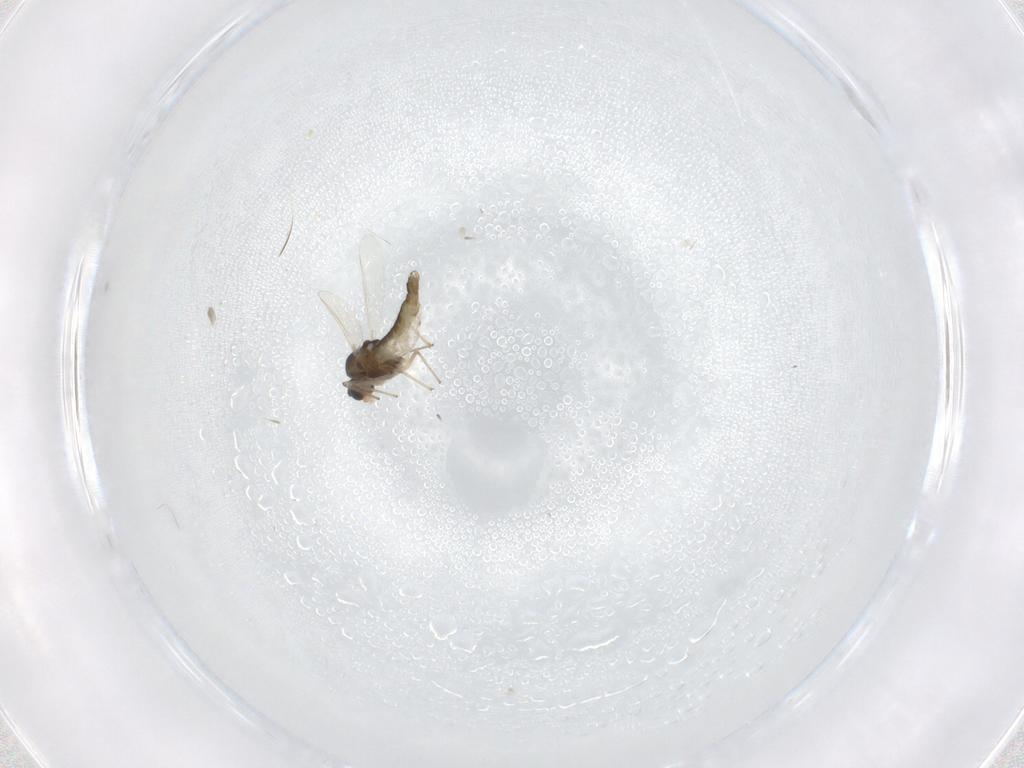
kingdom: Animalia
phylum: Arthropoda
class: Insecta
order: Diptera
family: Chironomidae
